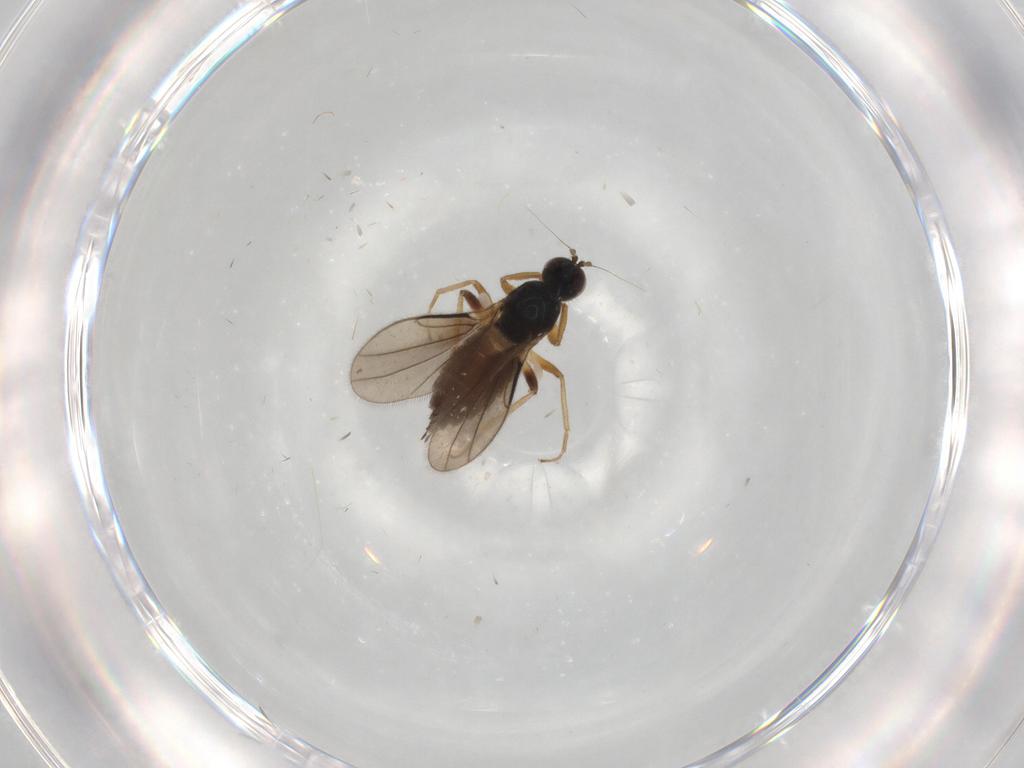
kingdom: Animalia
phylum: Arthropoda
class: Insecta
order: Diptera
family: Hybotidae
